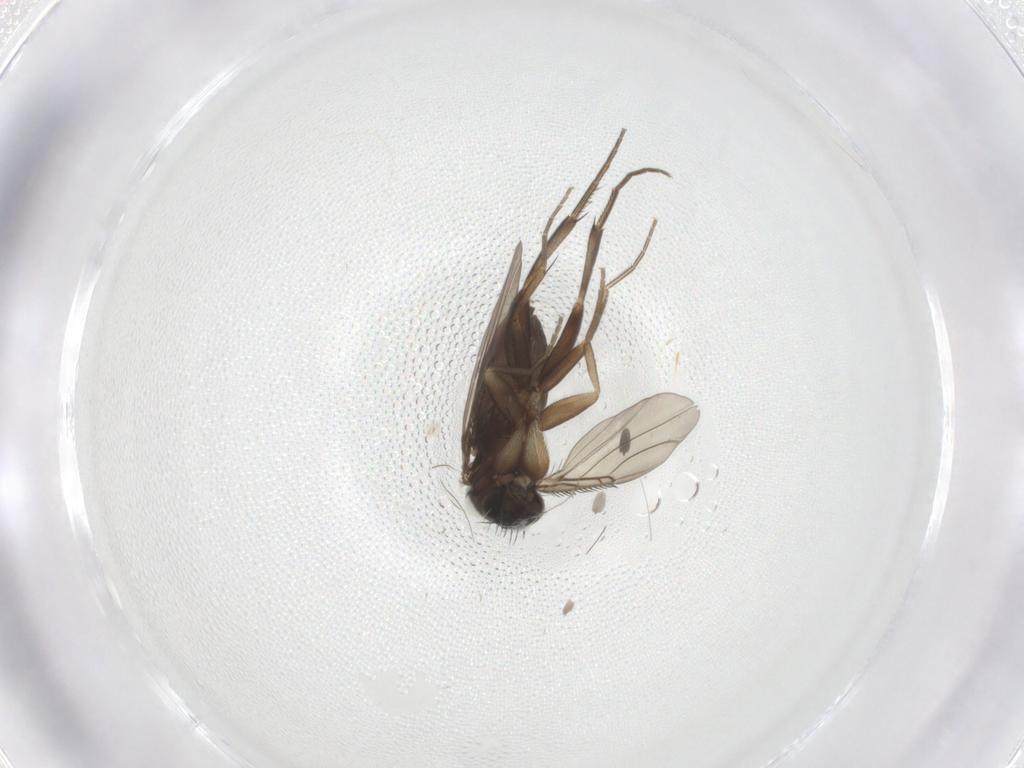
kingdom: Animalia
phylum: Arthropoda
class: Insecta
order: Diptera
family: Phoridae
